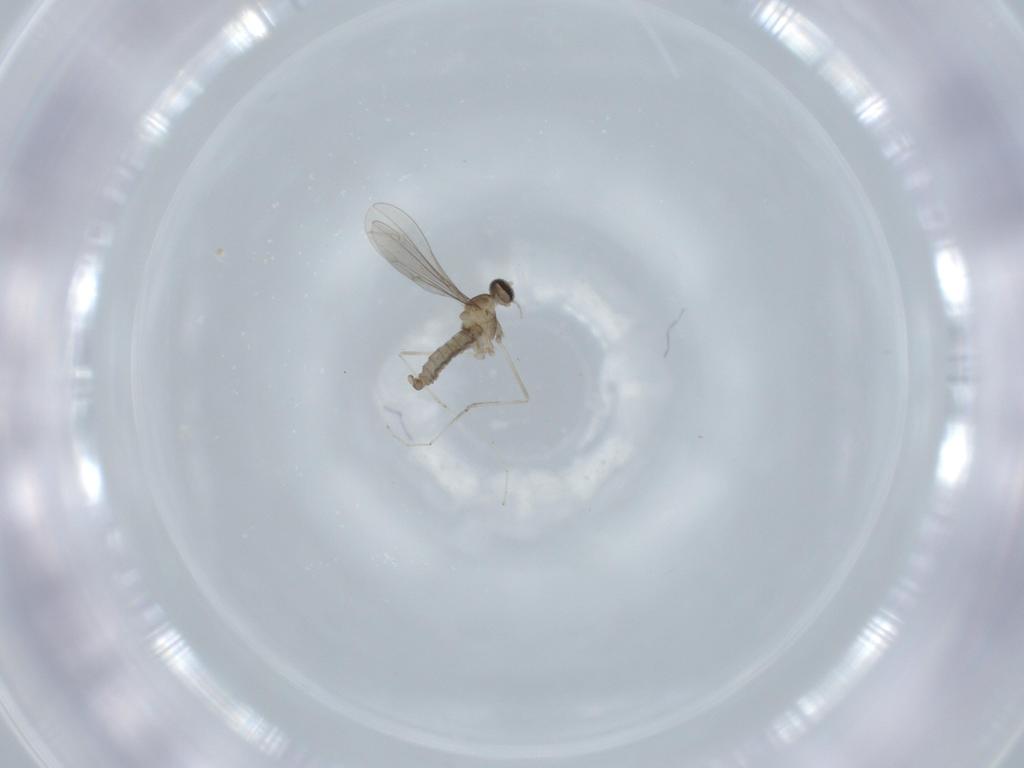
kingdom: Animalia
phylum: Arthropoda
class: Insecta
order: Diptera
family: Cecidomyiidae
